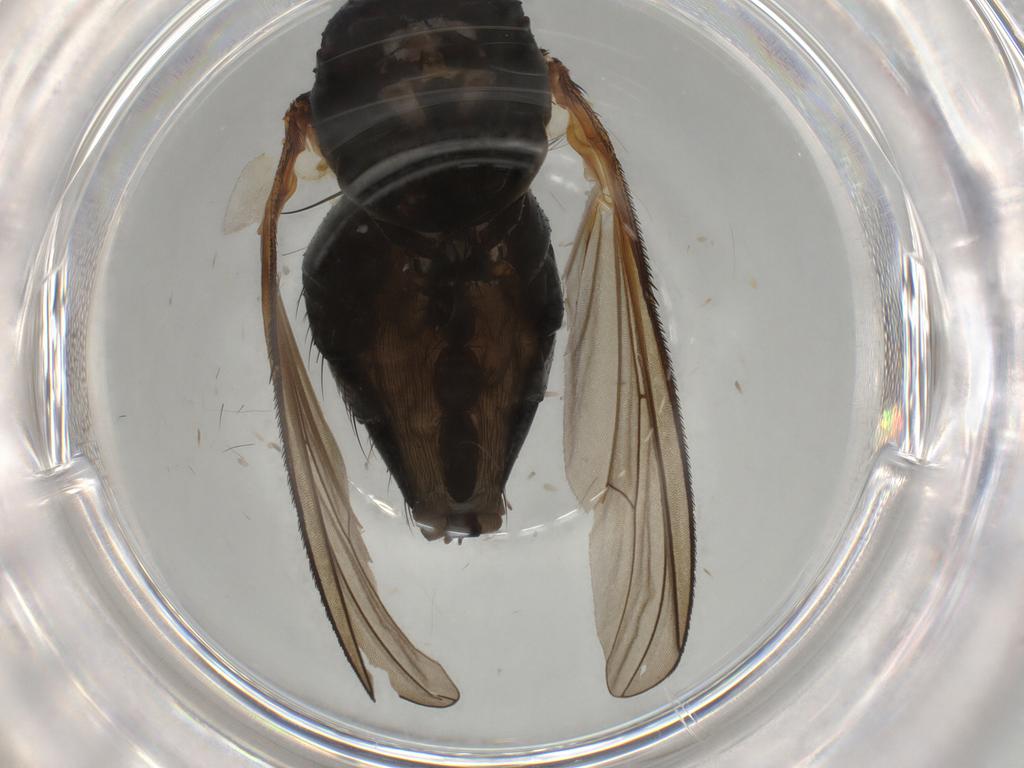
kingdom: Animalia
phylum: Arthropoda
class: Insecta
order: Diptera
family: Anthomyiidae
